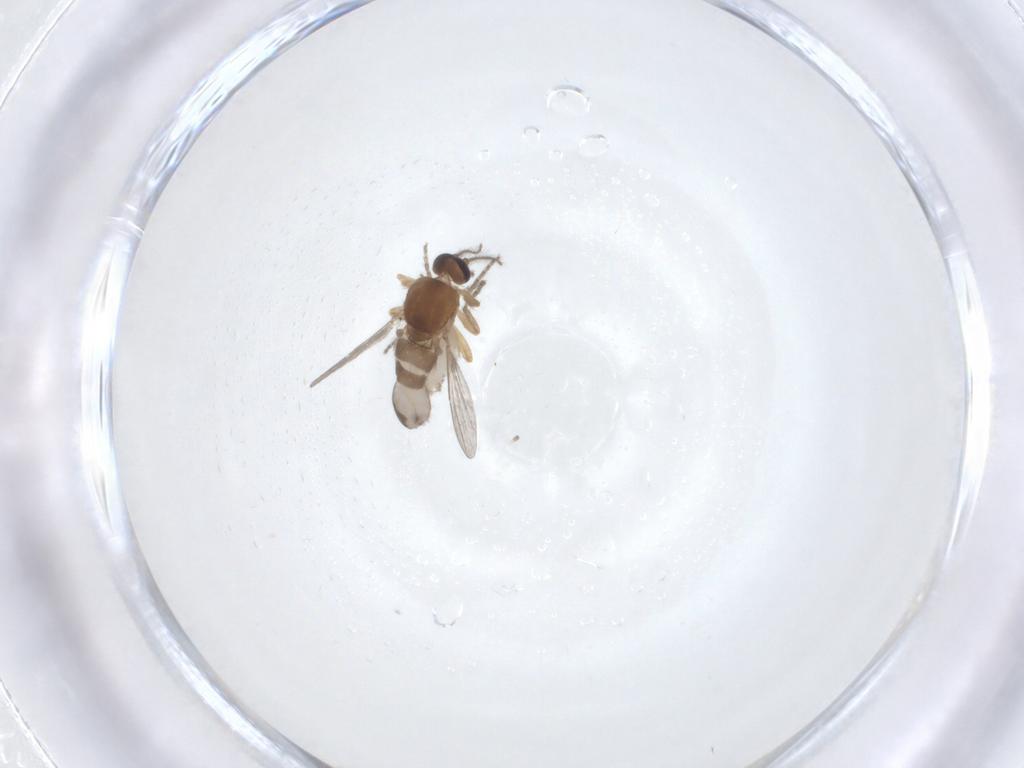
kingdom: Animalia
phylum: Arthropoda
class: Insecta
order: Diptera
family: Ceratopogonidae
